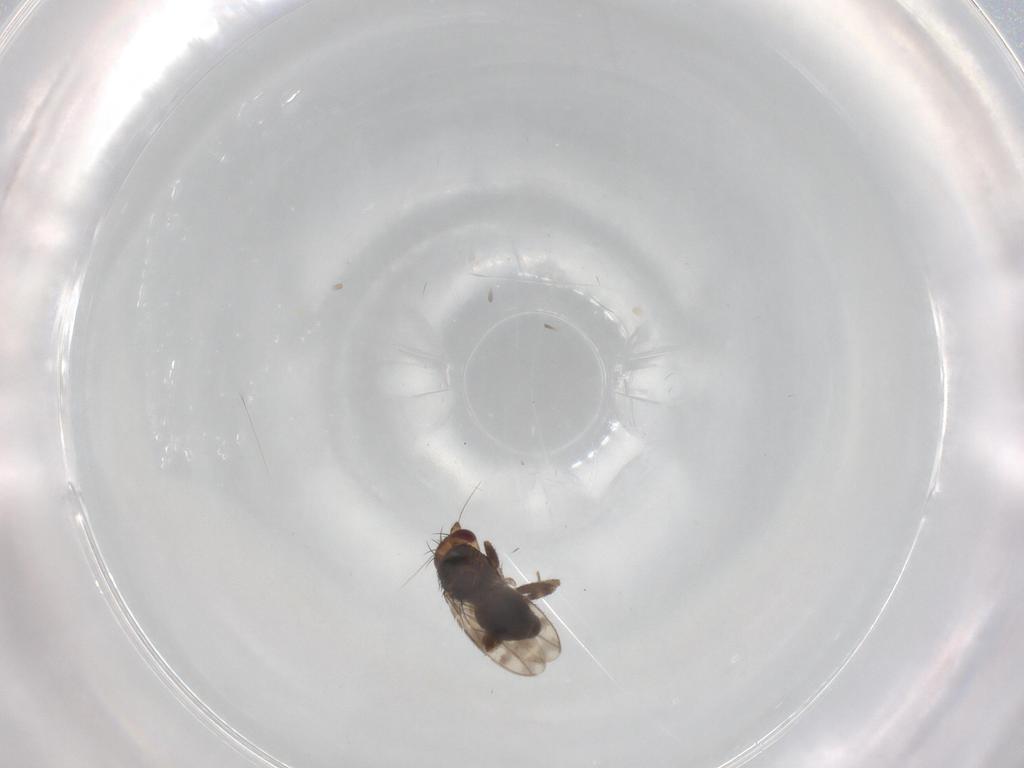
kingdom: Animalia
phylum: Arthropoda
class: Insecta
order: Diptera
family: Sphaeroceridae
